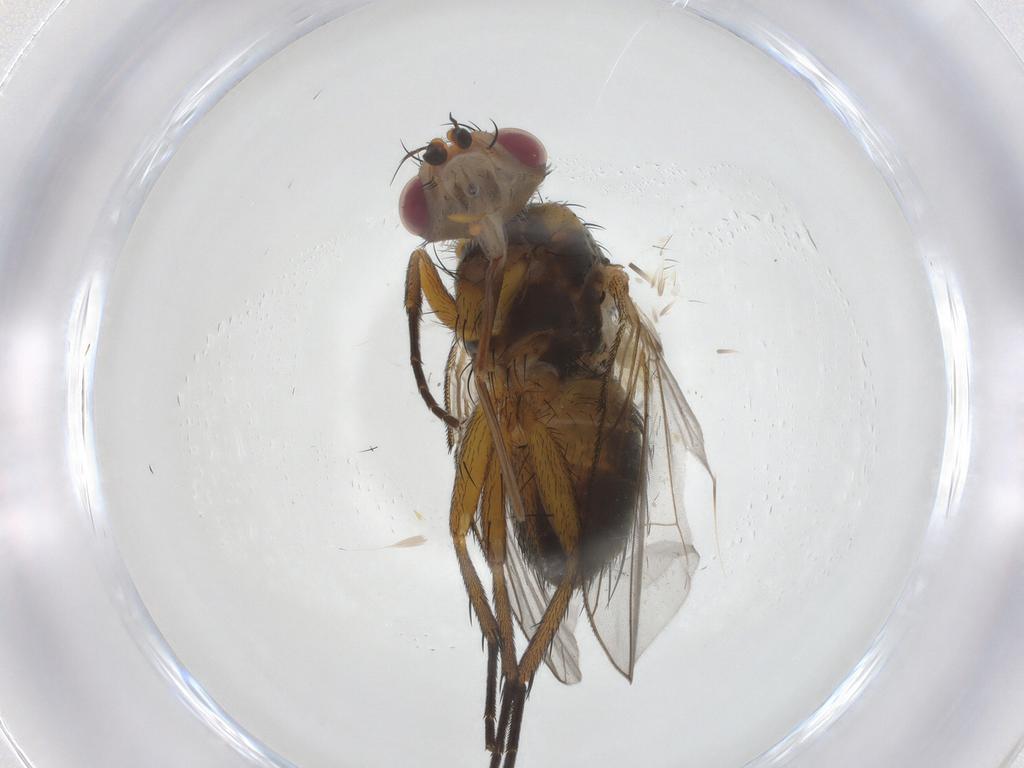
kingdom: Animalia
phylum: Arthropoda
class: Insecta
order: Diptera
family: Tachinidae
